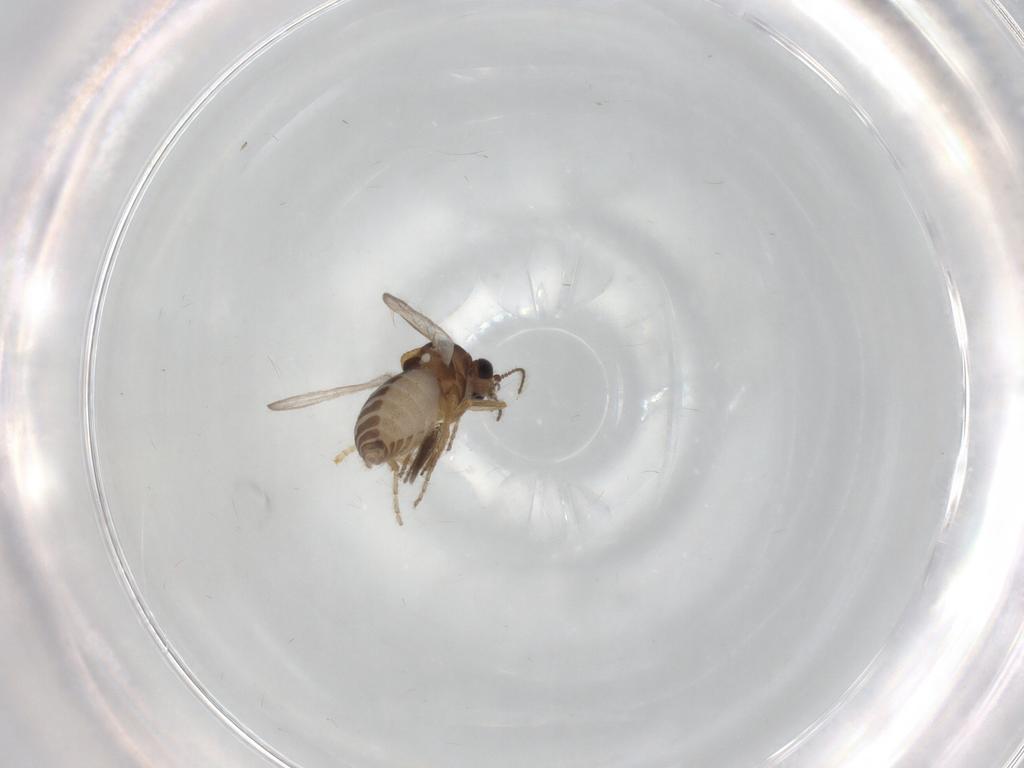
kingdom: Animalia
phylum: Arthropoda
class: Insecta
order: Diptera
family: Ceratopogonidae
